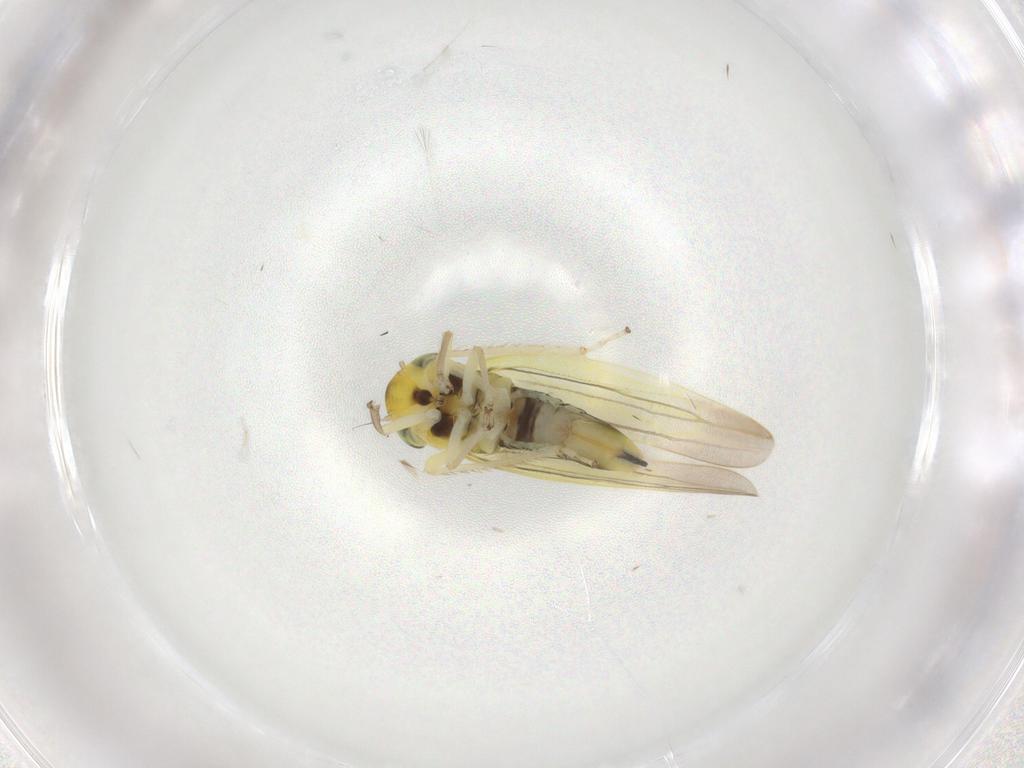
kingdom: Animalia
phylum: Arthropoda
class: Insecta
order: Hemiptera
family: Cicadellidae
